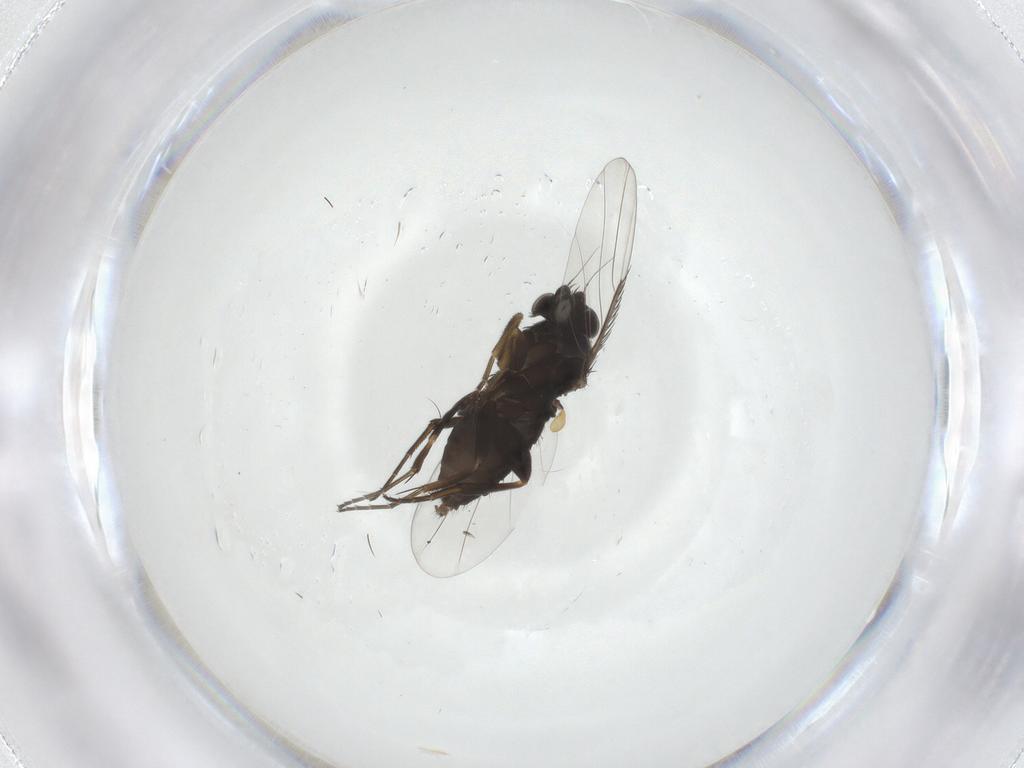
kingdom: Animalia
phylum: Arthropoda
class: Insecta
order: Diptera
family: Phoridae
